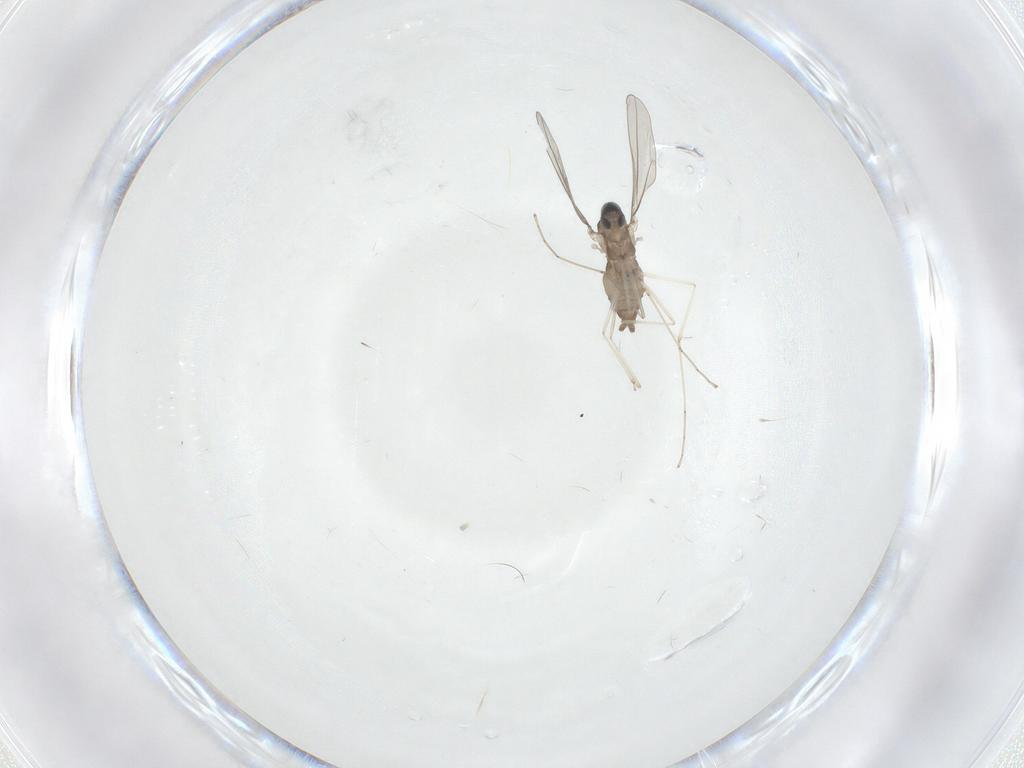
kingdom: Animalia
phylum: Arthropoda
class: Insecta
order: Diptera
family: Cecidomyiidae
